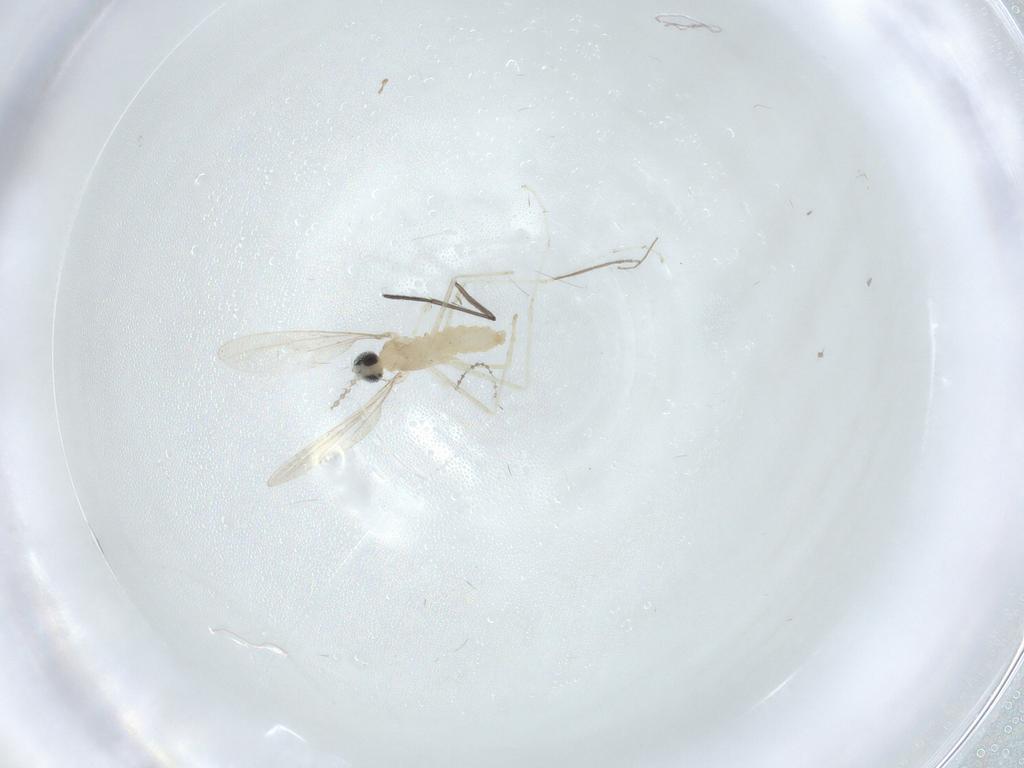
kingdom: Animalia
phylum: Arthropoda
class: Insecta
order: Diptera
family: Cecidomyiidae
